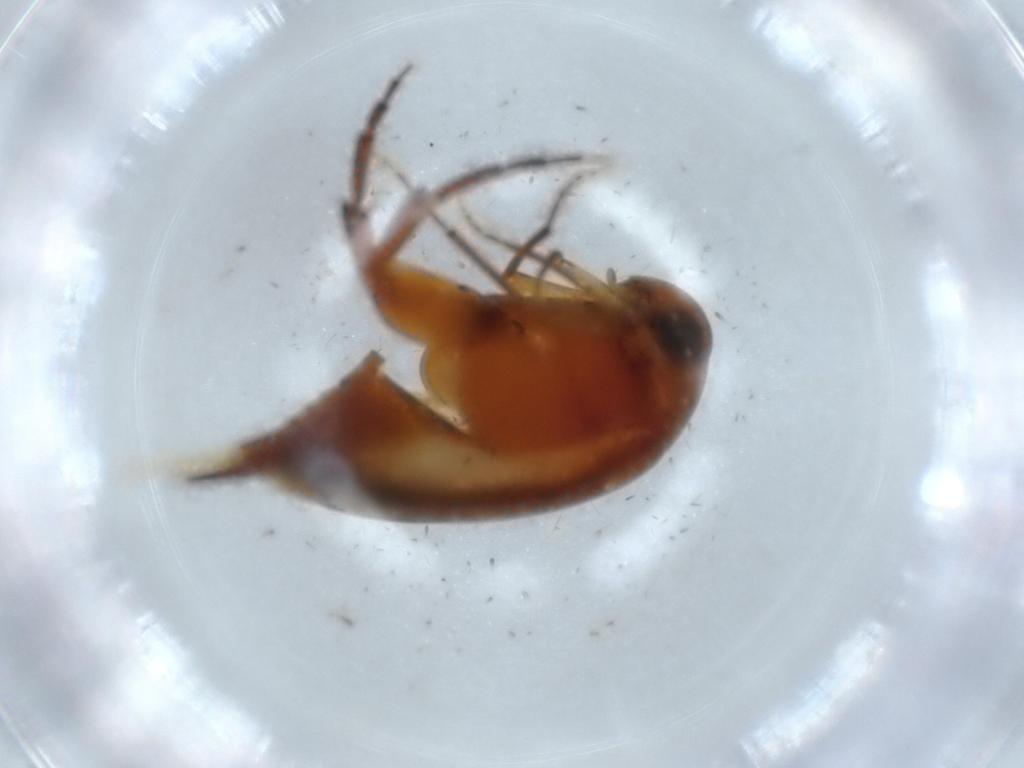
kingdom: Animalia
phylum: Arthropoda
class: Insecta
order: Coleoptera
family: Mordellidae
